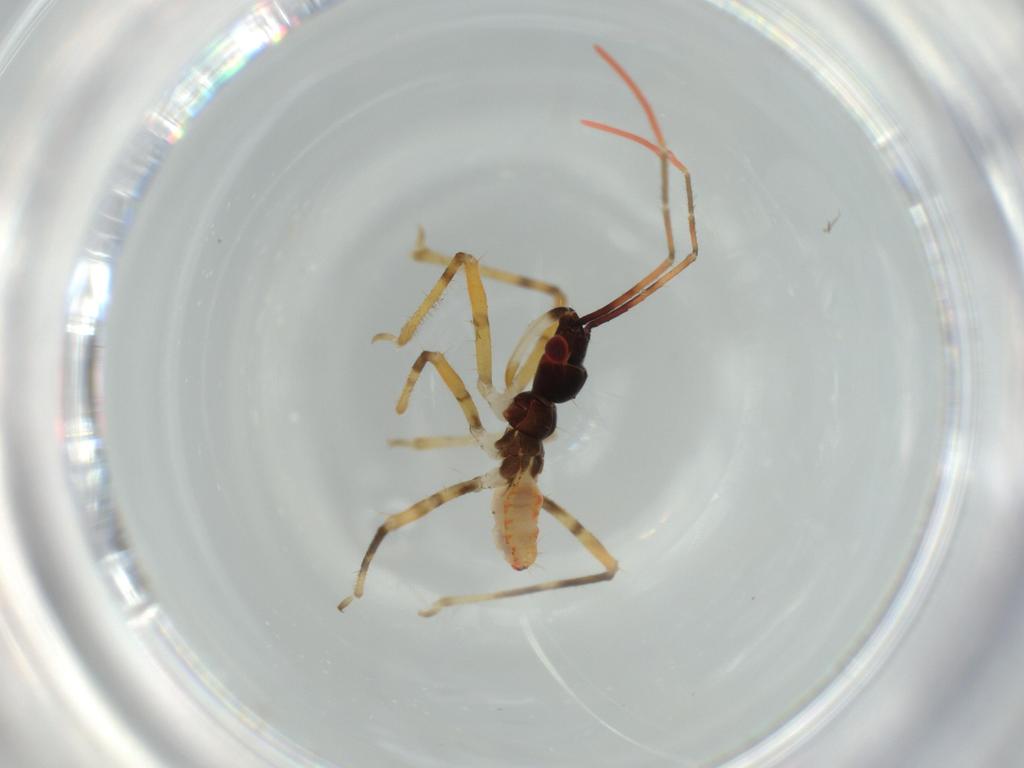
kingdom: Animalia
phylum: Arthropoda
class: Insecta
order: Hemiptera
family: Reduviidae
